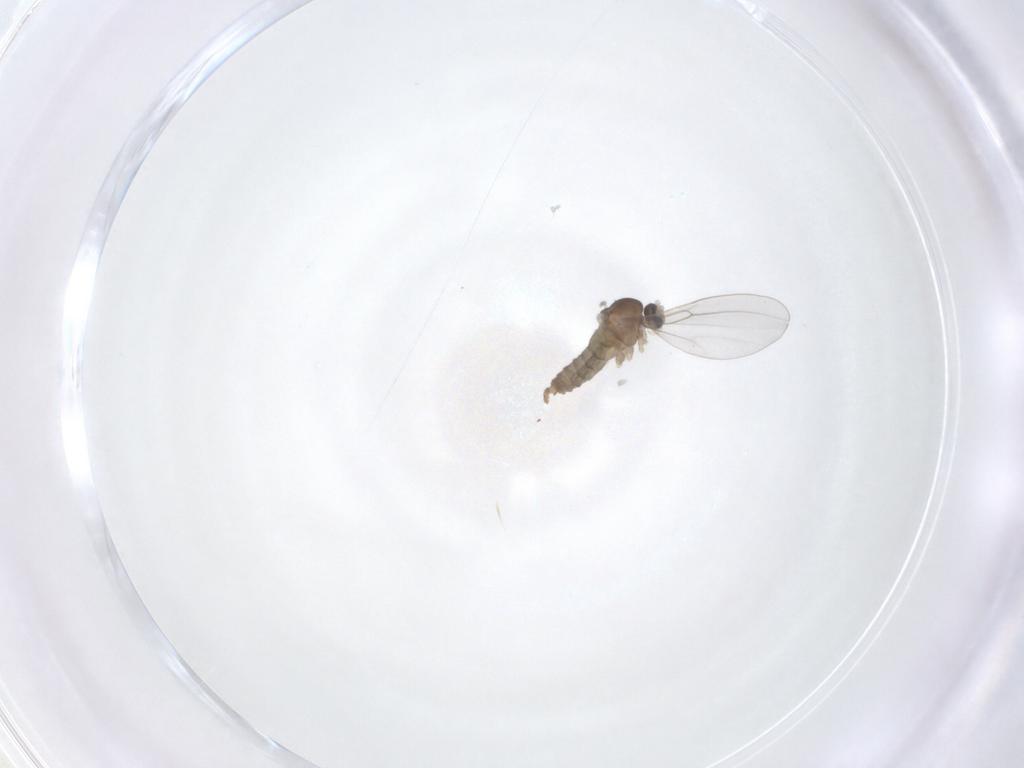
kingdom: Animalia
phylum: Arthropoda
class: Insecta
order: Diptera
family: Cecidomyiidae
